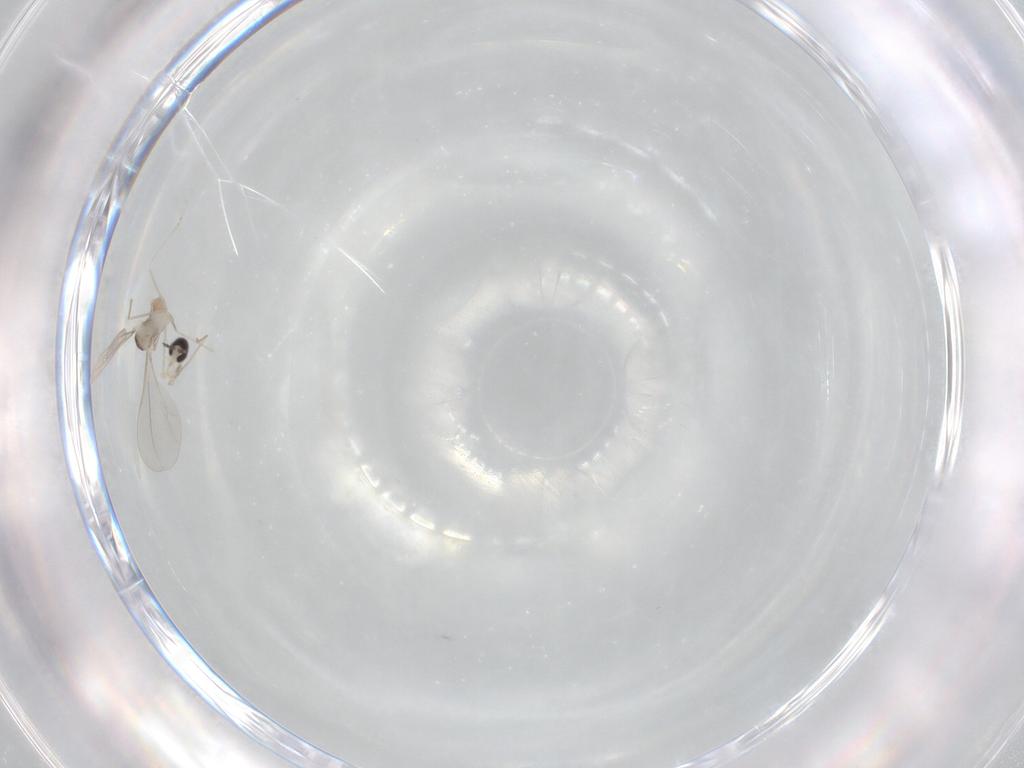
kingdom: Animalia
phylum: Arthropoda
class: Insecta
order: Diptera
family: Cecidomyiidae
